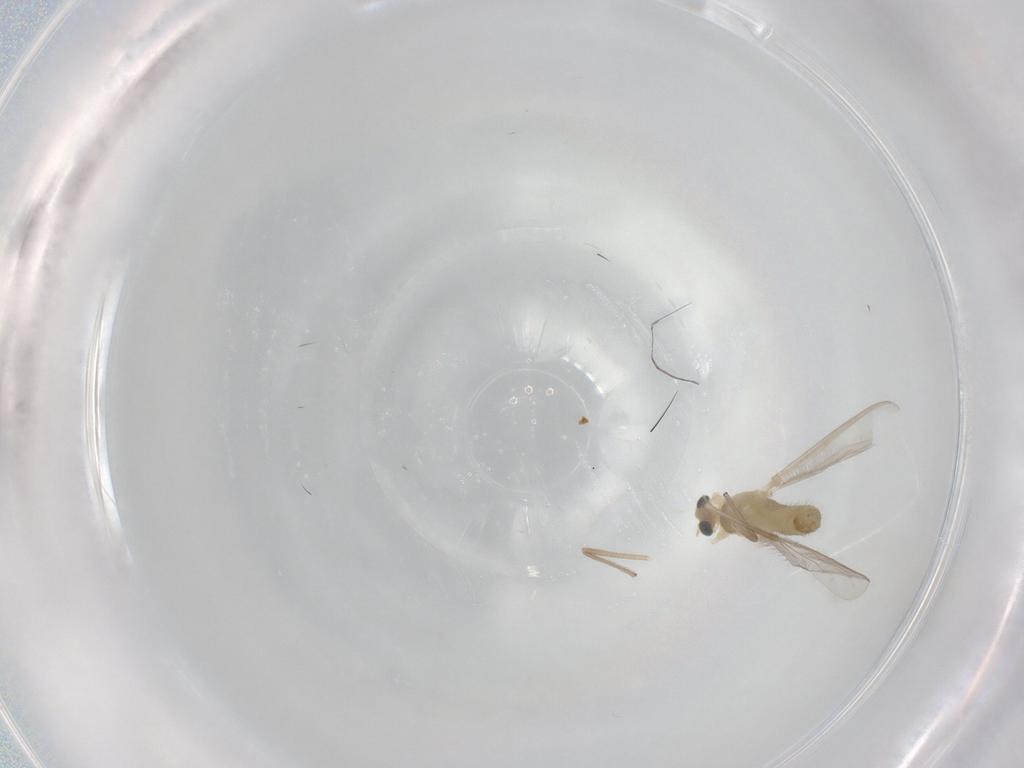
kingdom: Animalia
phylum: Arthropoda
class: Insecta
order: Diptera
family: Chironomidae
